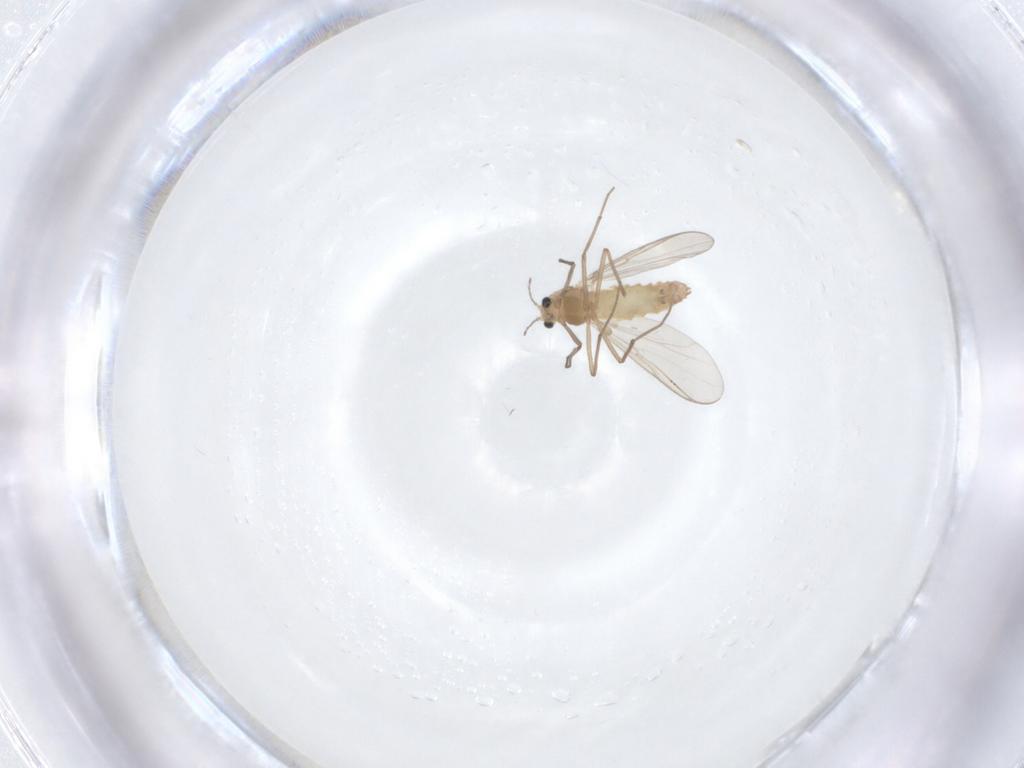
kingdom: Animalia
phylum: Arthropoda
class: Insecta
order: Diptera
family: Chironomidae
